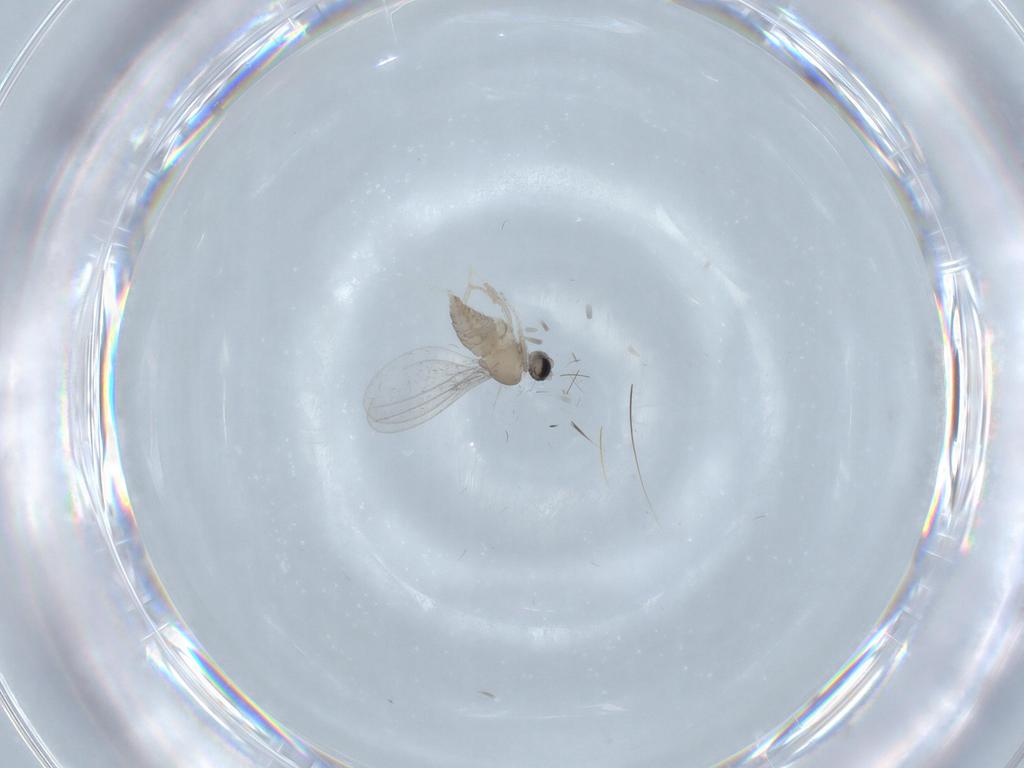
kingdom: Animalia
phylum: Arthropoda
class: Insecta
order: Diptera
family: Cecidomyiidae
